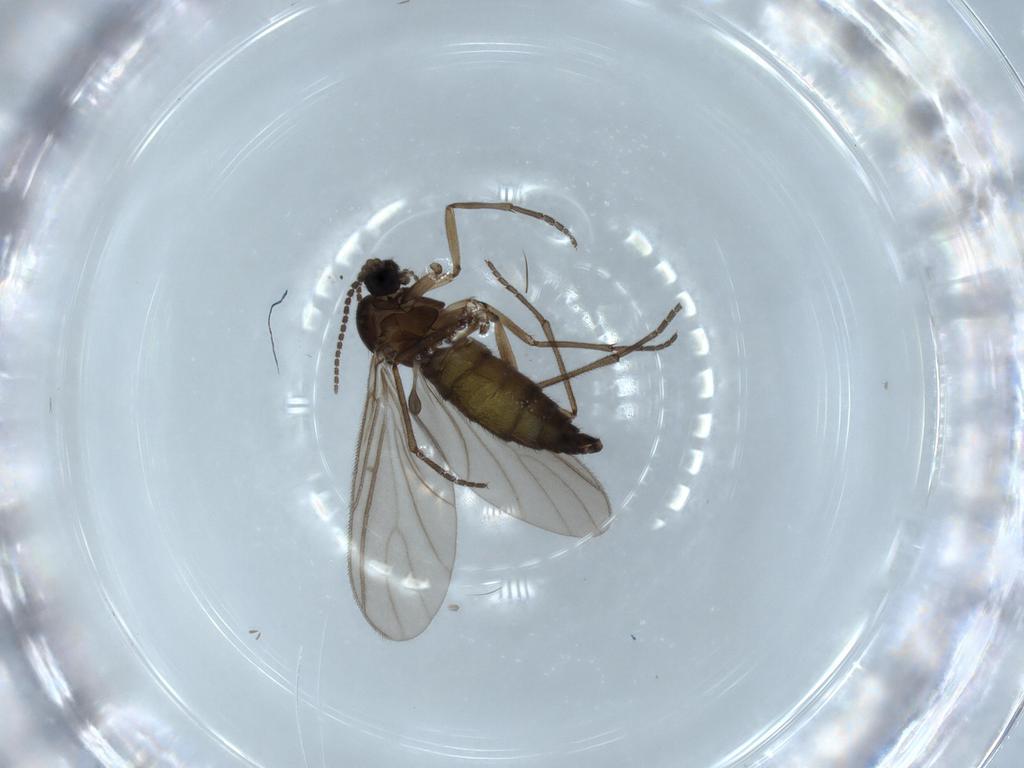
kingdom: Animalia
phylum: Arthropoda
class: Insecta
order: Diptera
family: Sciaridae
